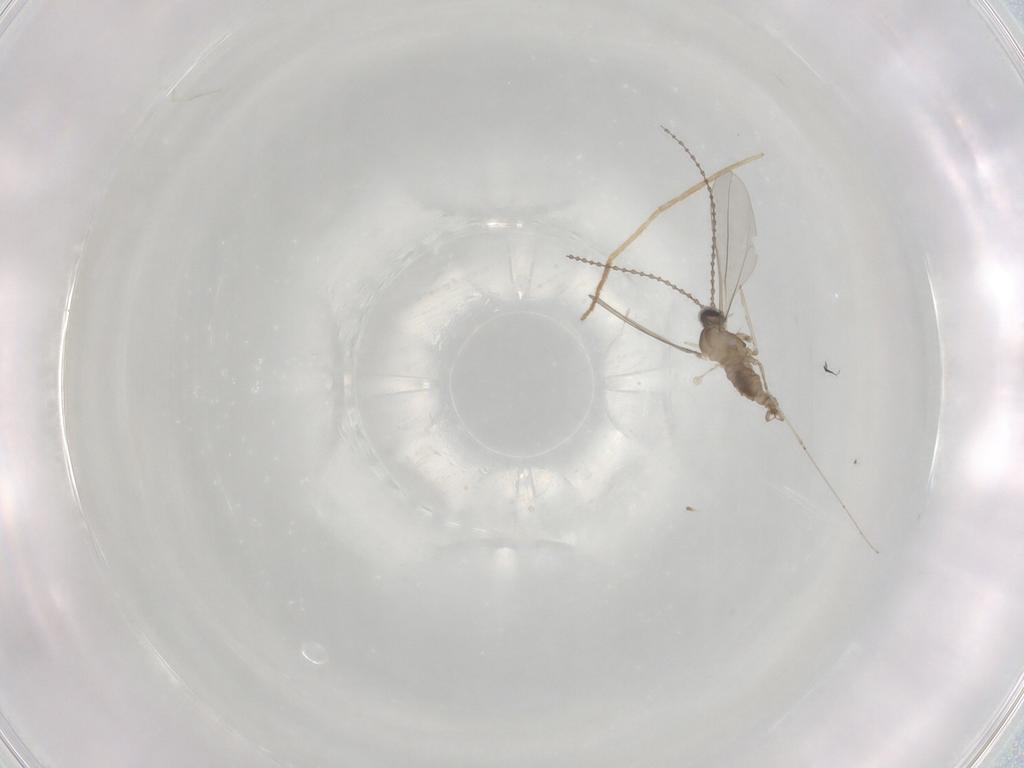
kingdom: Animalia
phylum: Arthropoda
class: Insecta
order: Diptera
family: Cecidomyiidae
